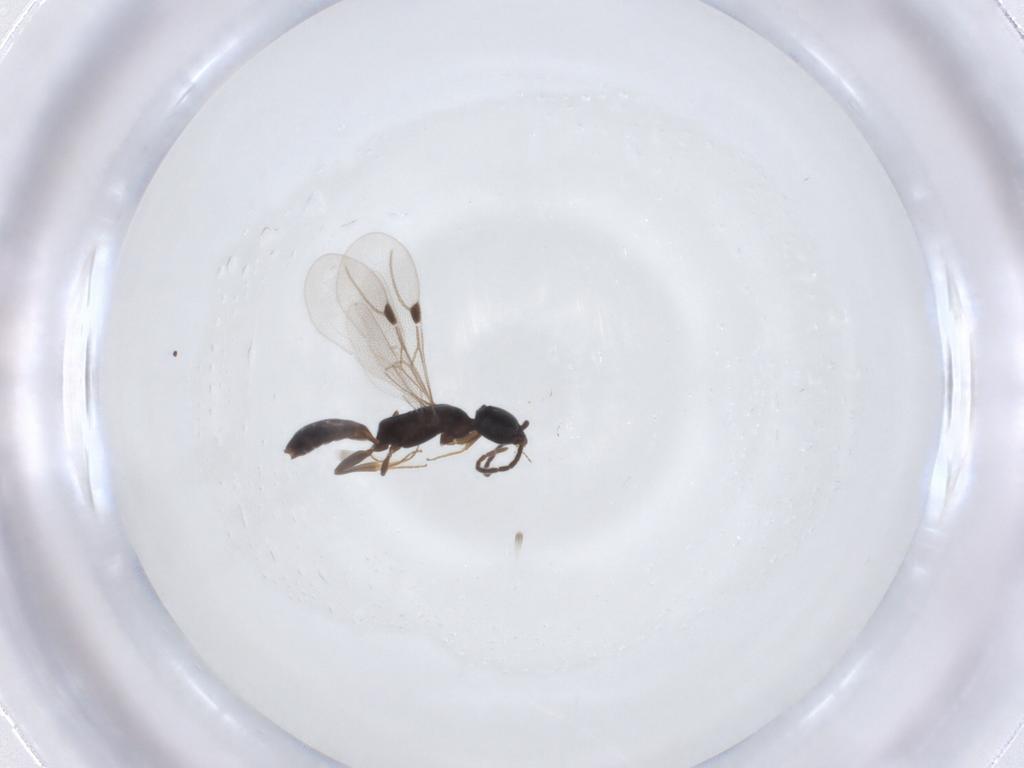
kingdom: Animalia
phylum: Arthropoda
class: Insecta
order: Hymenoptera
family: Bethylidae
